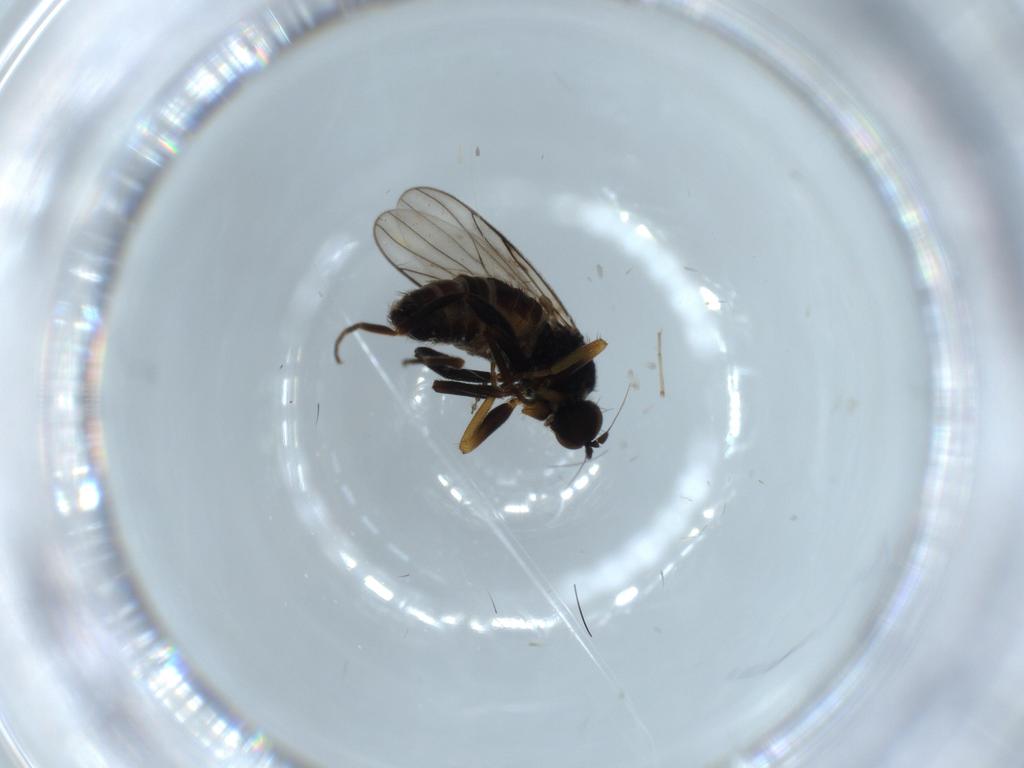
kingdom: Animalia
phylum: Arthropoda
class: Insecta
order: Diptera
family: Hybotidae
